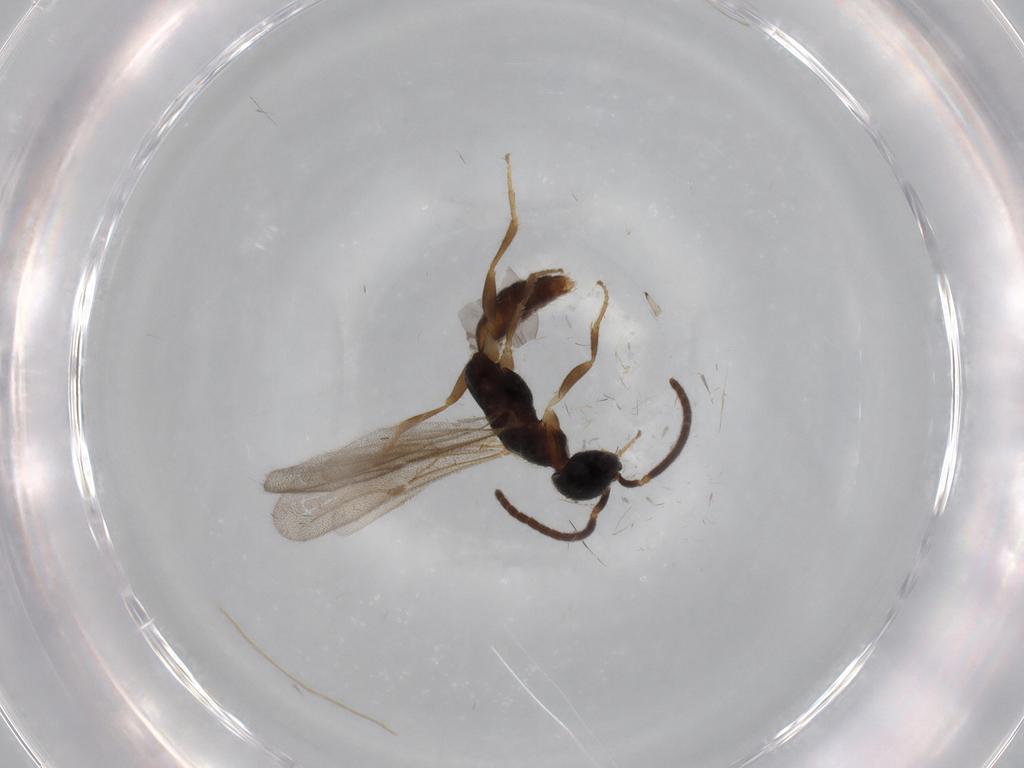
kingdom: Animalia
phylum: Arthropoda
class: Insecta
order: Hymenoptera
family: Bethylidae
